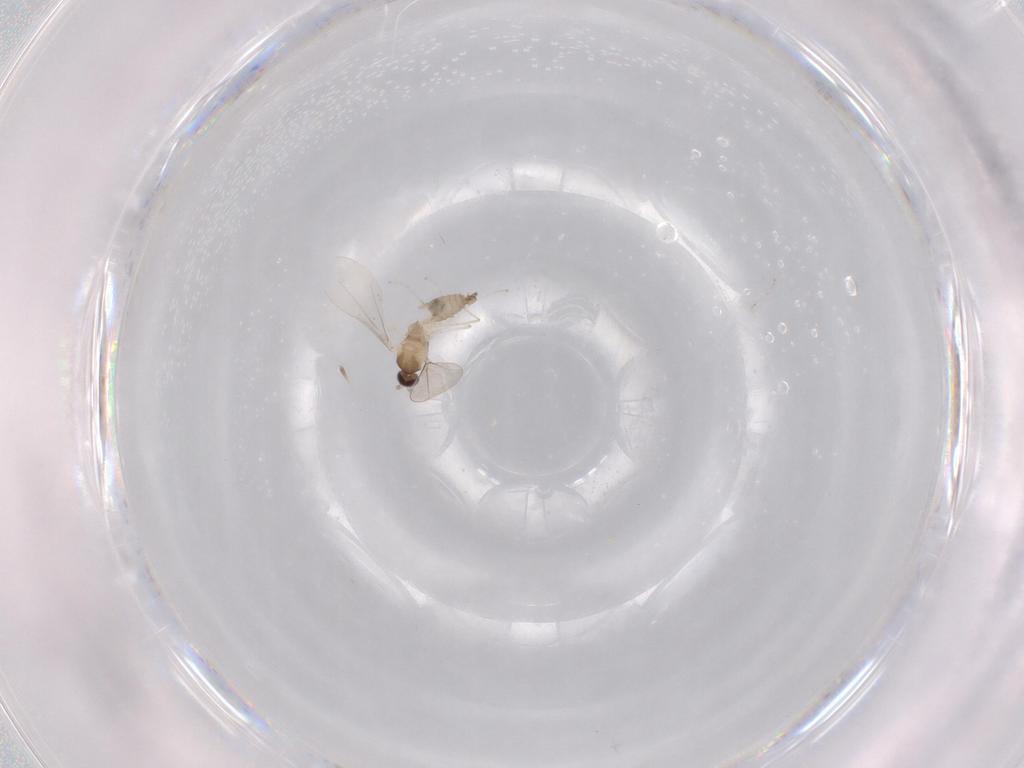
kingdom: Animalia
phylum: Arthropoda
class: Insecta
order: Diptera
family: Cecidomyiidae
